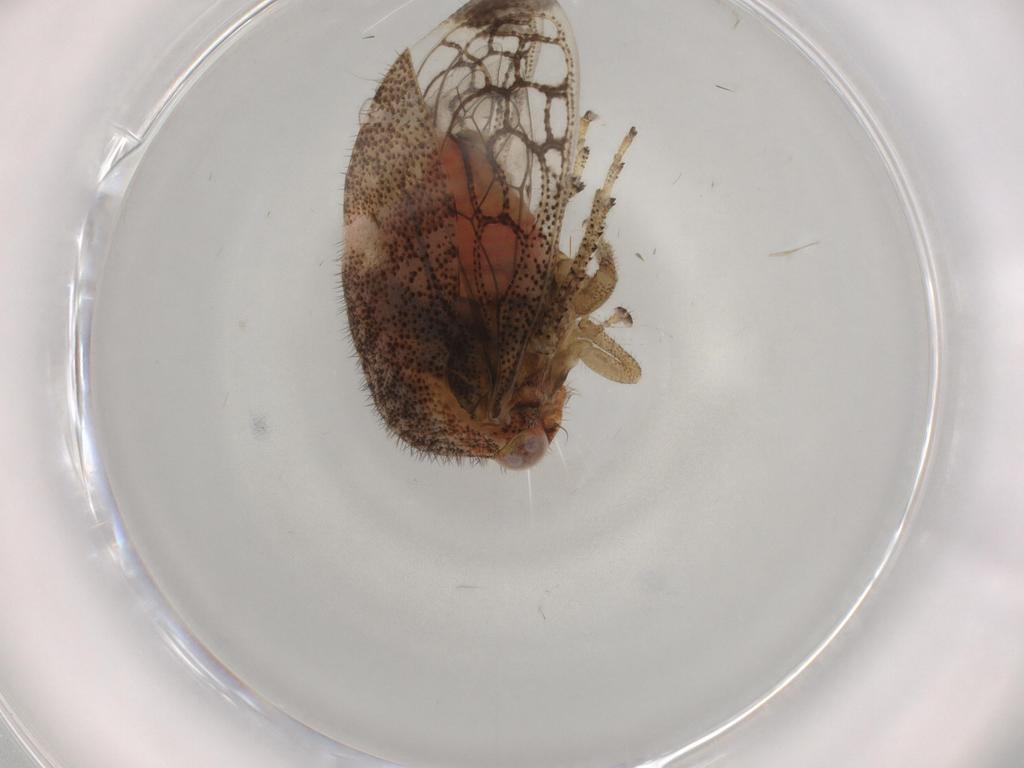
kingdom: Animalia
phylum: Arthropoda
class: Insecta
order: Hemiptera
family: Membracidae
